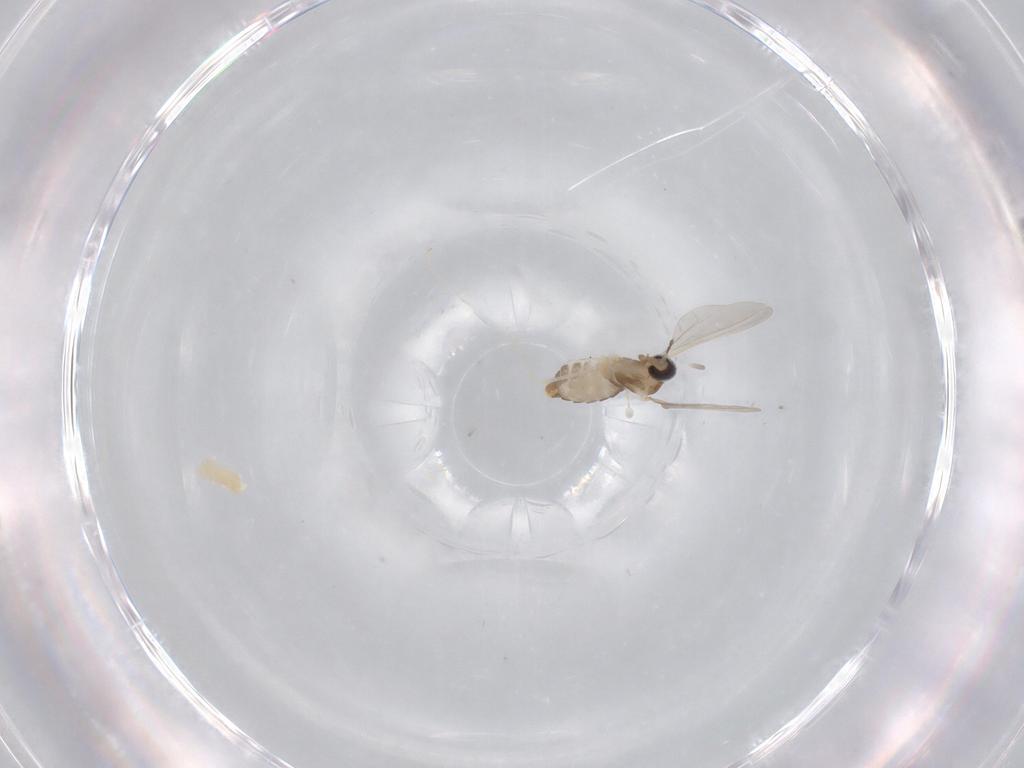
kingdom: Animalia
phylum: Arthropoda
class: Insecta
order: Diptera
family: Cecidomyiidae
